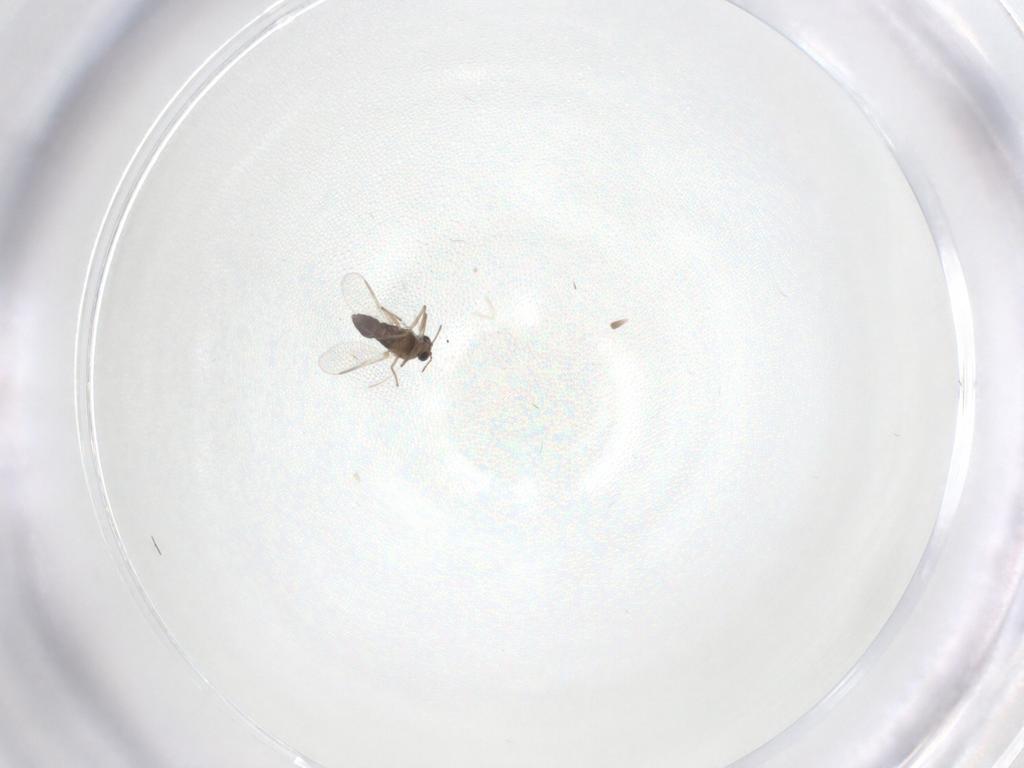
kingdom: Animalia
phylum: Arthropoda
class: Insecta
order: Diptera
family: Chironomidae
